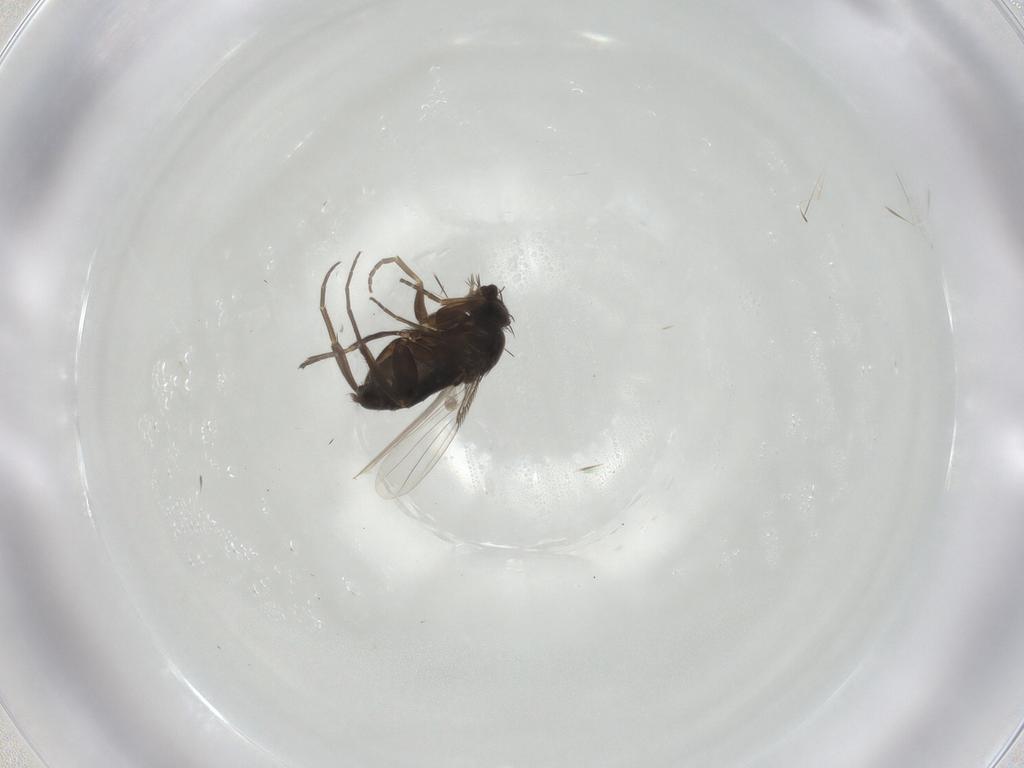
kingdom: Animalia
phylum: Arthropoda
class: Insecta
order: Diptera
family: Phoridae
